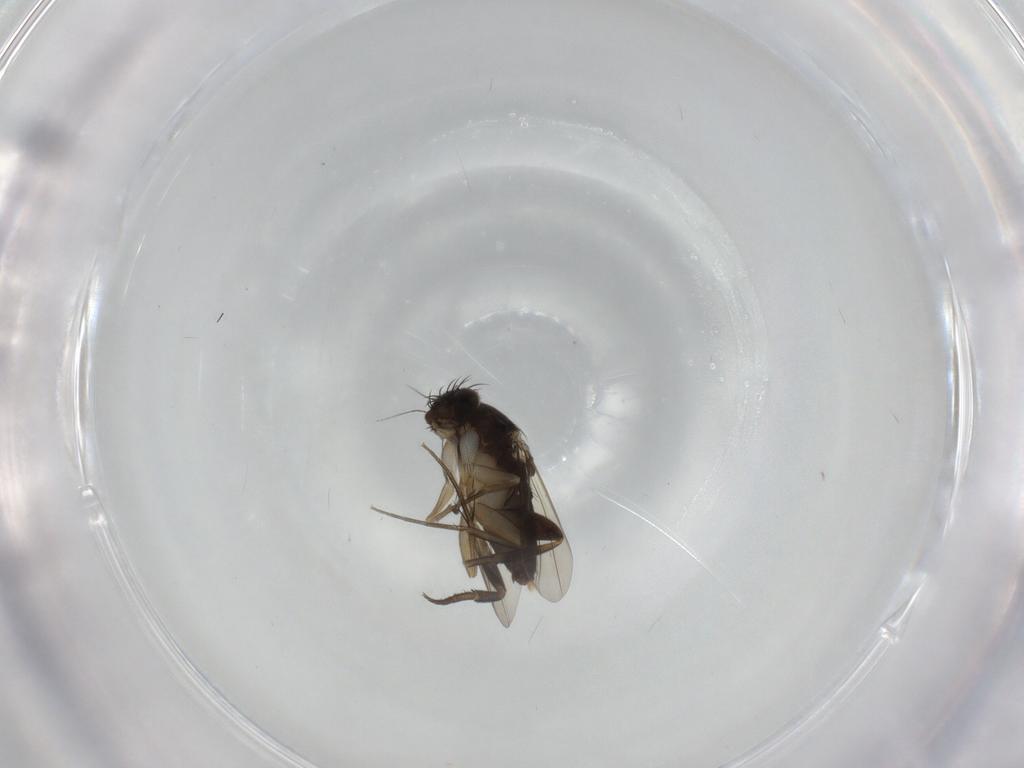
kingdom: Animalia
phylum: Arthropoda
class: Insecta
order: Diptera
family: Phoridae
